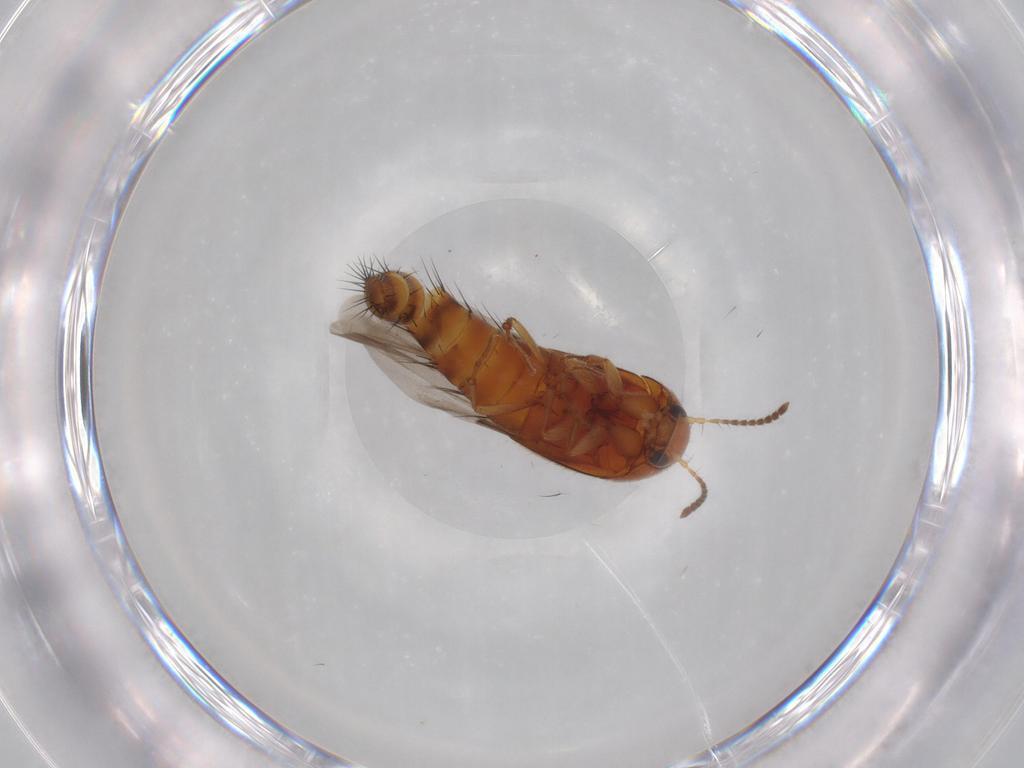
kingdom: Animalia
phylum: Arthropoda
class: Insecta
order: Coleoptera
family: Staphylinidae
